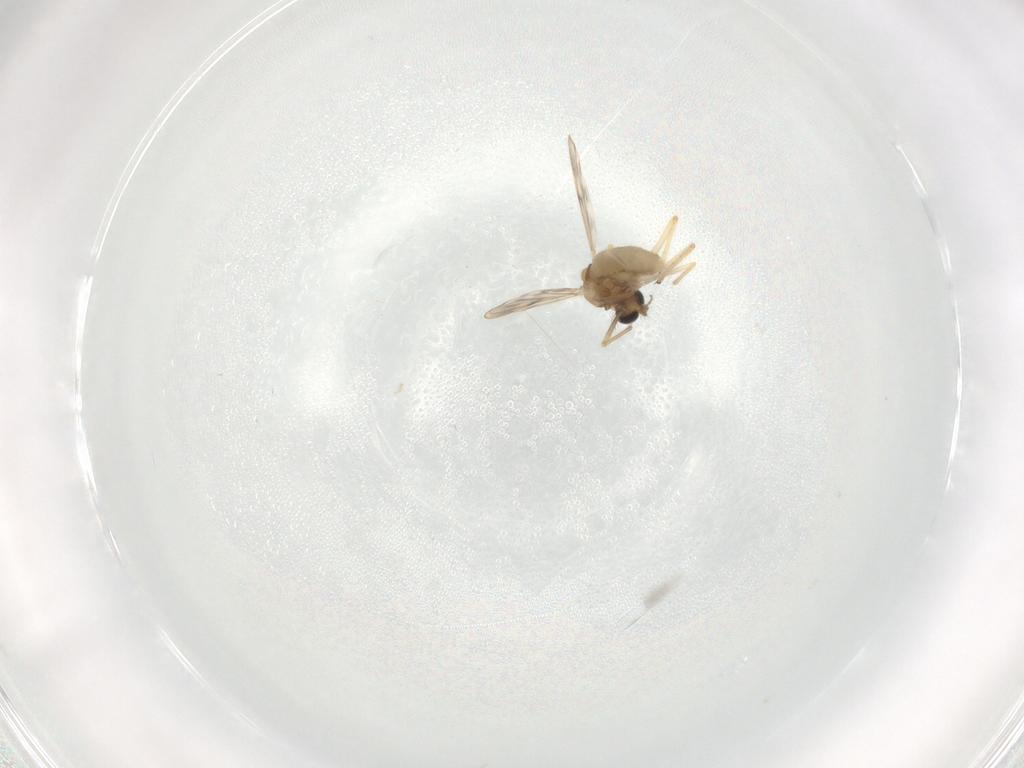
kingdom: Animalia
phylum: Arthropoda
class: Insecta
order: Diptera
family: Chironomidae
